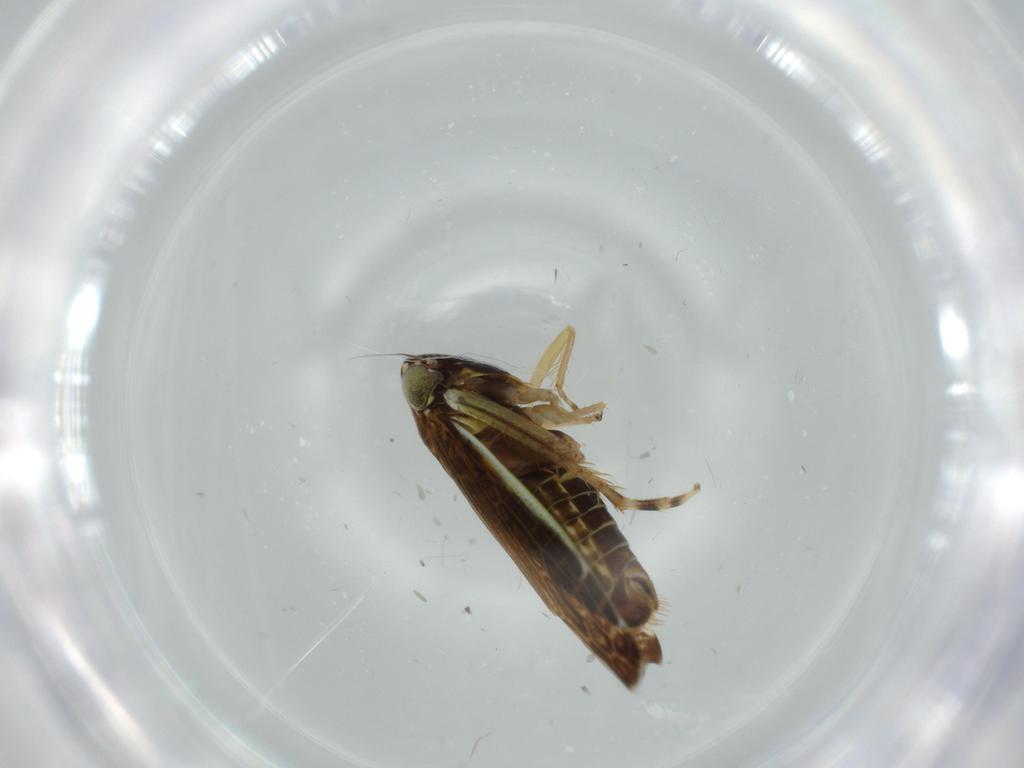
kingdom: Animalia
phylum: Arthropoda
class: Insecta
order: Hemiptera
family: Cicadellidae
